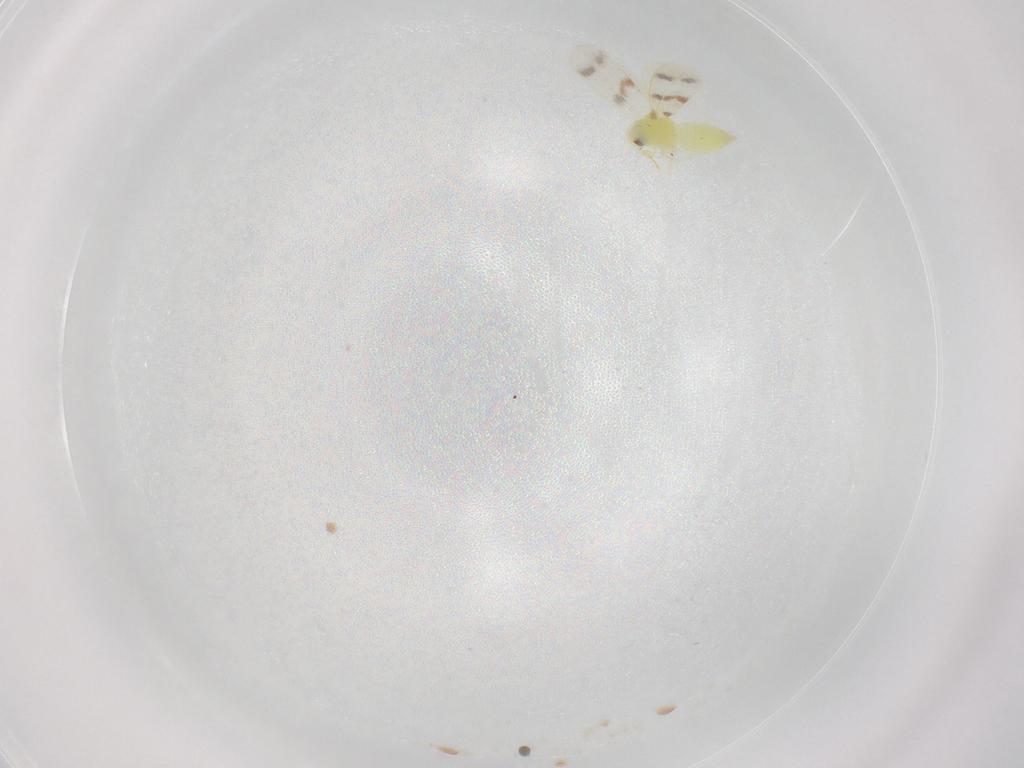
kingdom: Animalia
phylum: Arthropoda
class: Insecta
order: Hemiptera
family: Aleyrodidae
